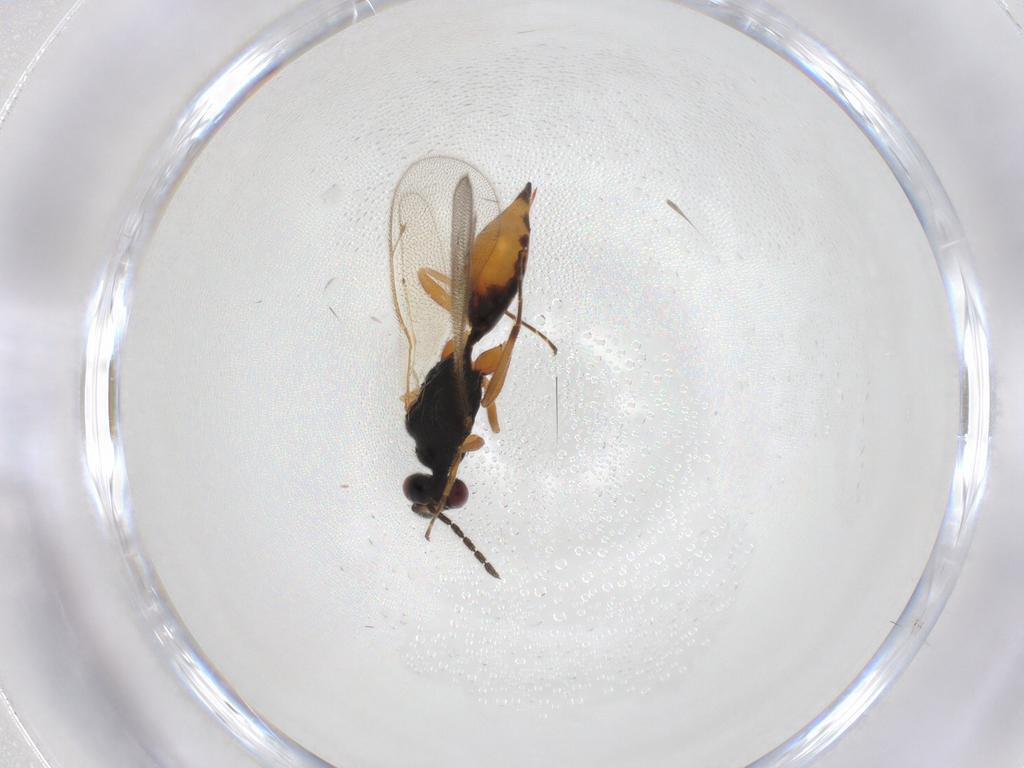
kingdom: Animalia
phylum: Arthropoda
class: Insecta
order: Hymenoptera
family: Eulophidae
